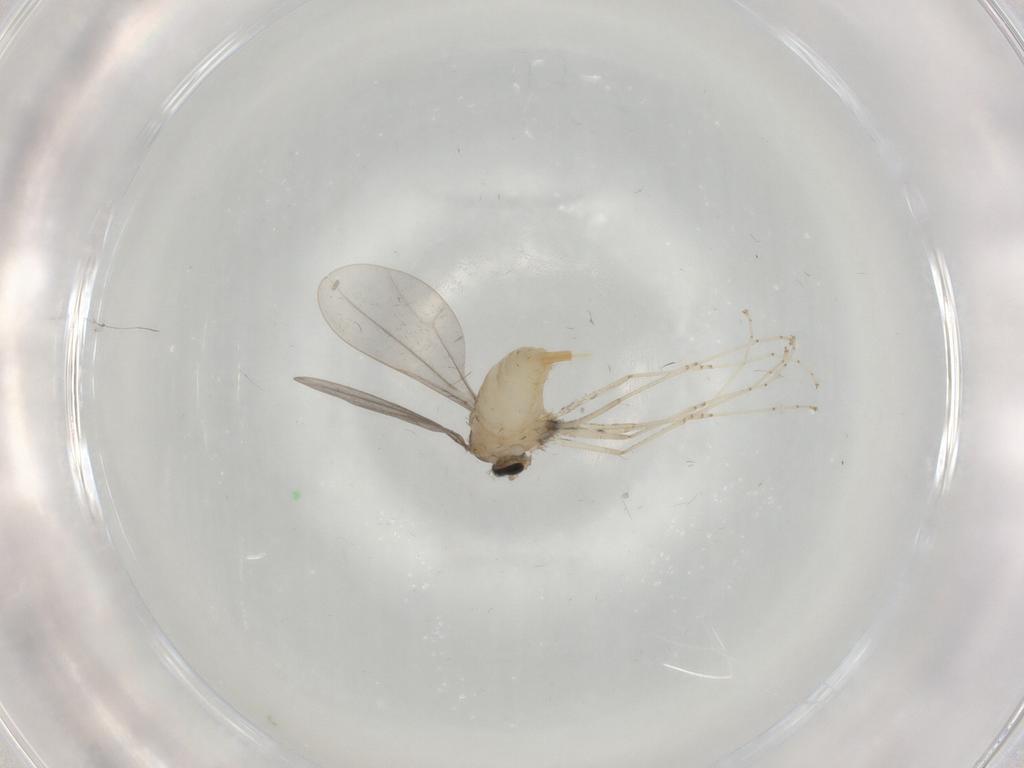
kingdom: Animalia
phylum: Arthropoda
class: Insecta
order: Diptera
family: Cecidomyiidae
